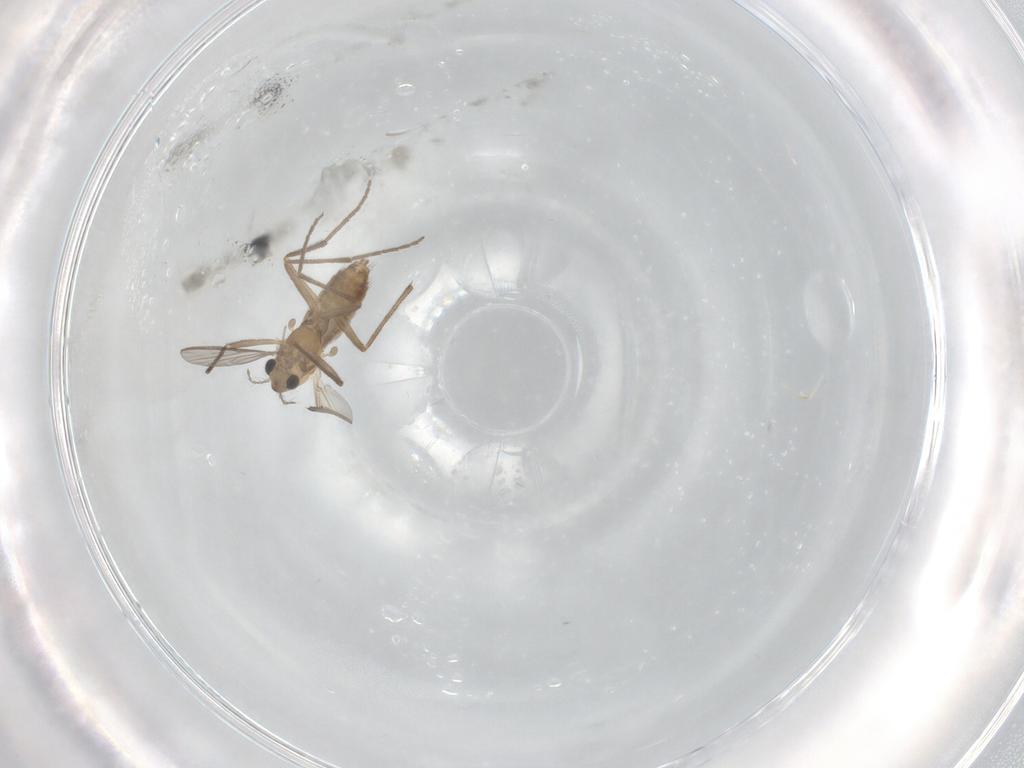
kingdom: Animalia
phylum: Arthropoda
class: Insecta
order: Diptera
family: Chironomidae
